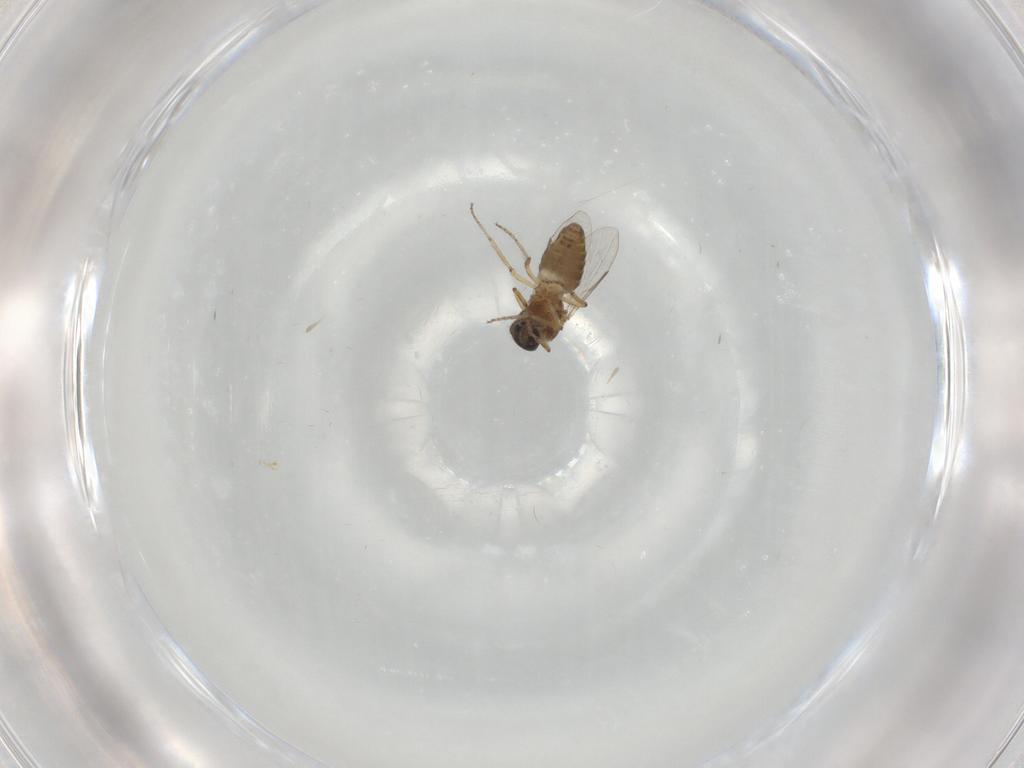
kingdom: Animalia
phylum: Arthropoda
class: Insecta
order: Diptera
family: Ceratopogonidae
